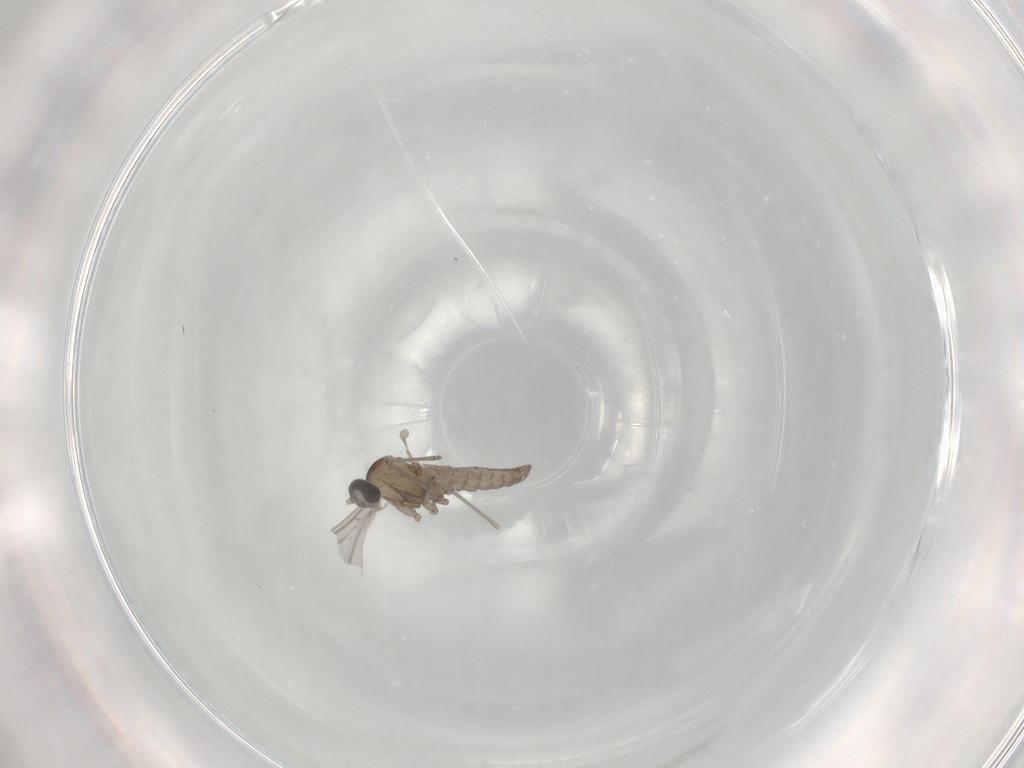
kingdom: Animalia
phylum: Arthropoda
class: Insecta
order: Diptera
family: Cecidomyiidae
